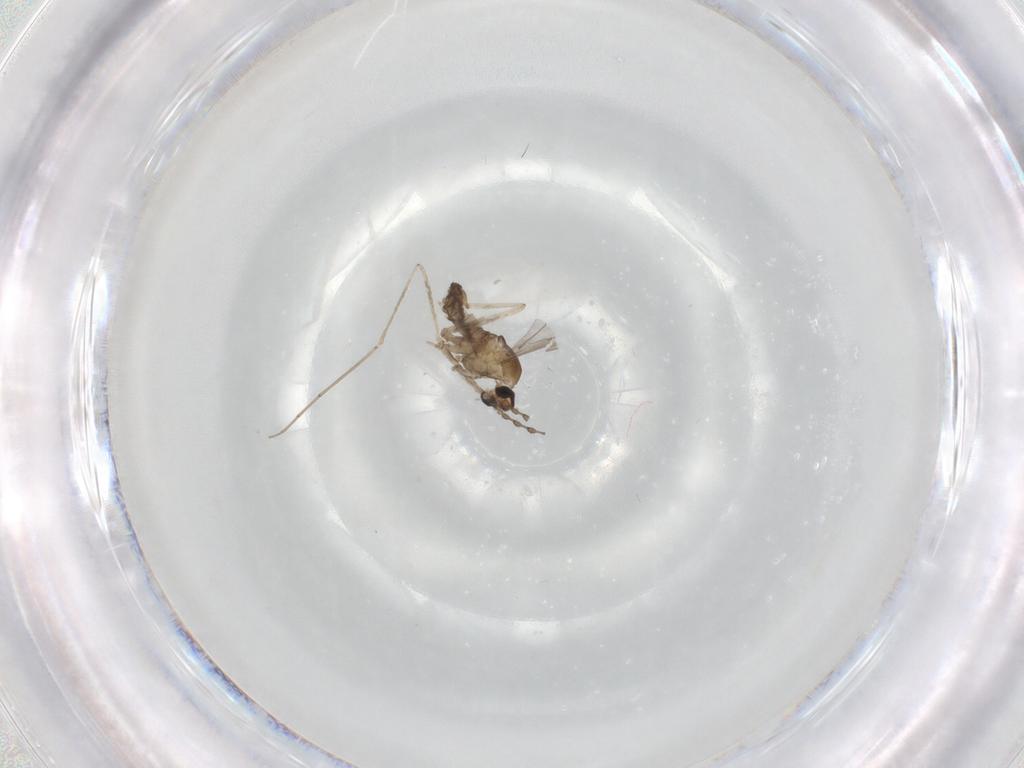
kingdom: Animalia
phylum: Arthropoda
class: Insecta
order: Diptera
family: Cecidomyiidae
